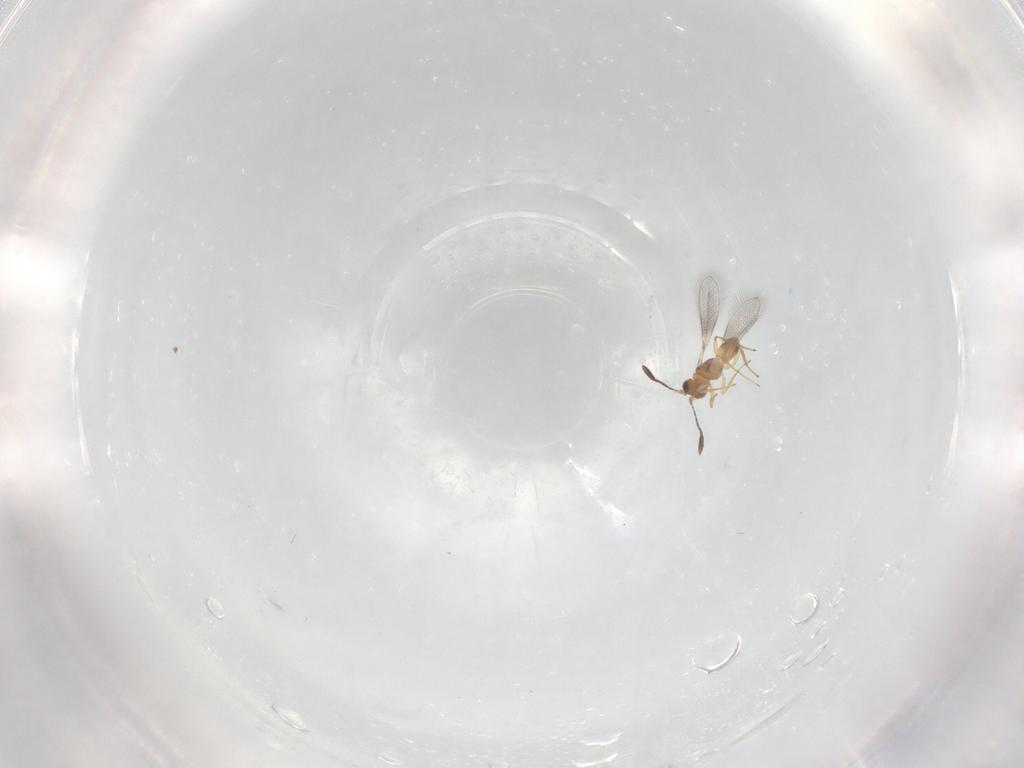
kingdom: Animalia
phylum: Arthropoda
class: Insecta
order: Hymenoptera
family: Mymaridae
